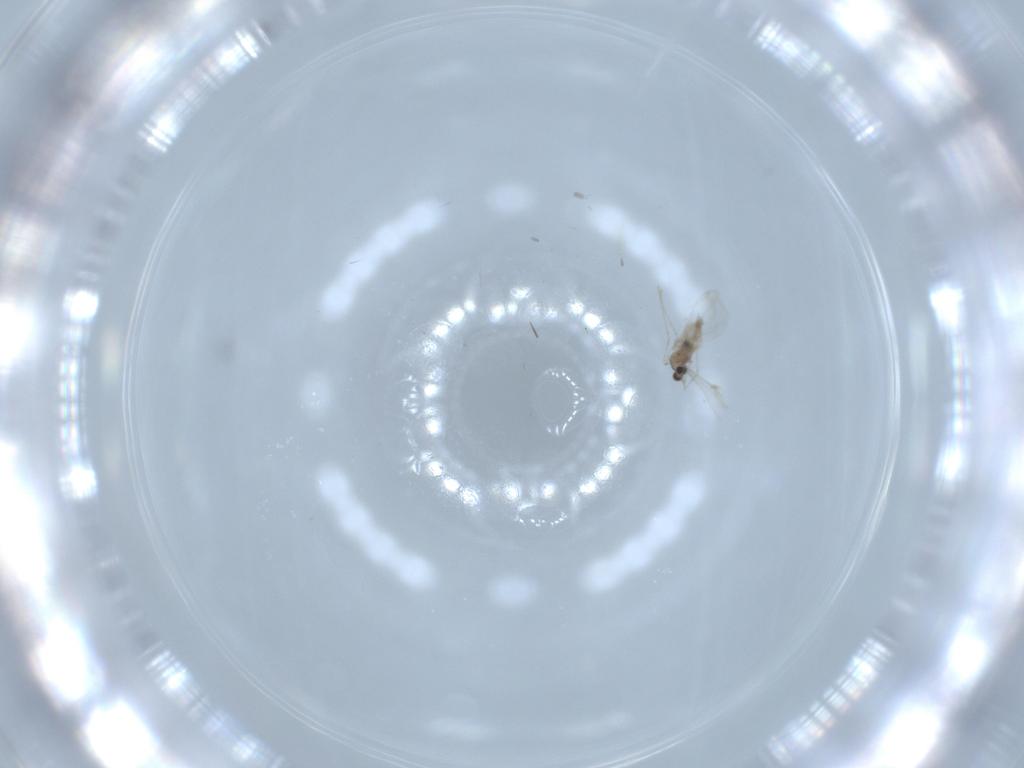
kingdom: Animalia
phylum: Arthropoda
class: Insecta
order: Diptera
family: Cecidomyiidae
